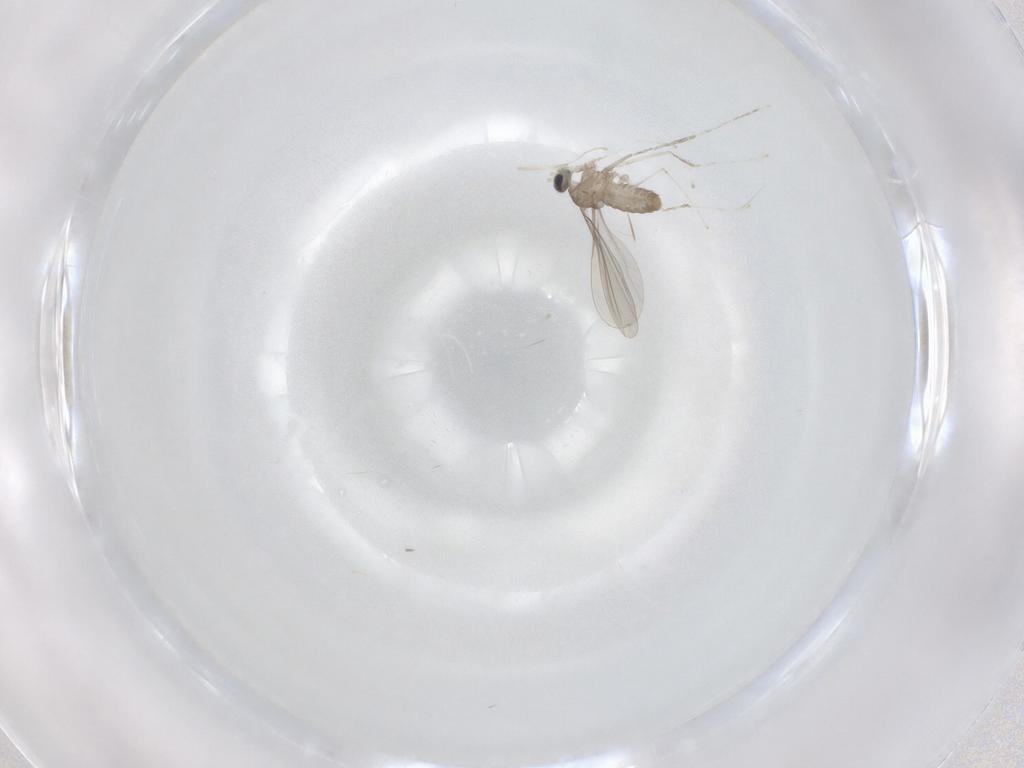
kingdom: Animalia
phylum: Arthropoda
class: Insecta
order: Diptera
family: Cecidomyiidae
